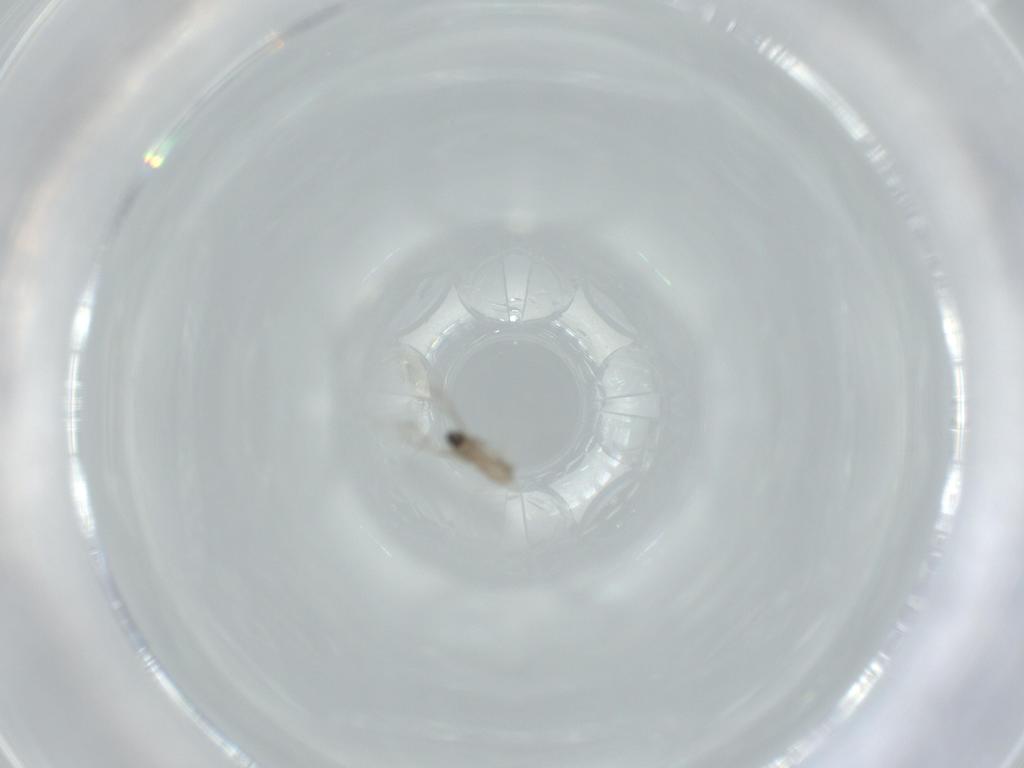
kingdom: Animalia
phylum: Arthropoda
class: Insecta
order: Diptera
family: Cecidomyiidae
